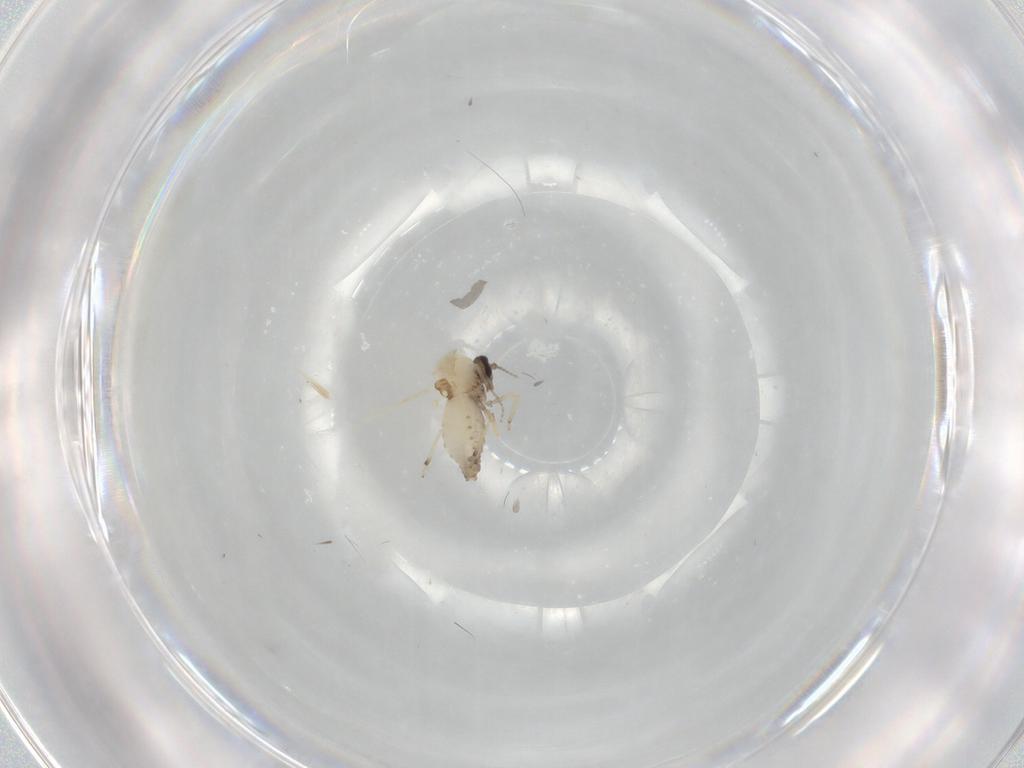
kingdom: Animalia
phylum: Arthropoda
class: Insecta
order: Diptera
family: Ceratopogonidae
